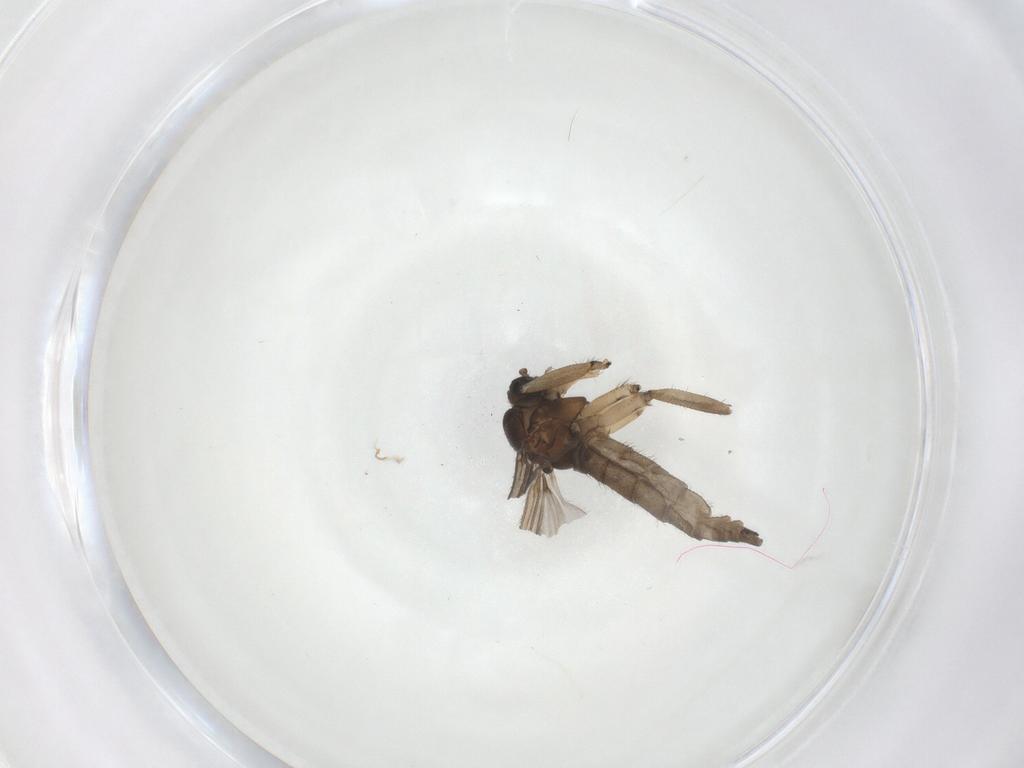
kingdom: Animalia
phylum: Arthropoda
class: Insecta
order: Diptera
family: Sciaridae
